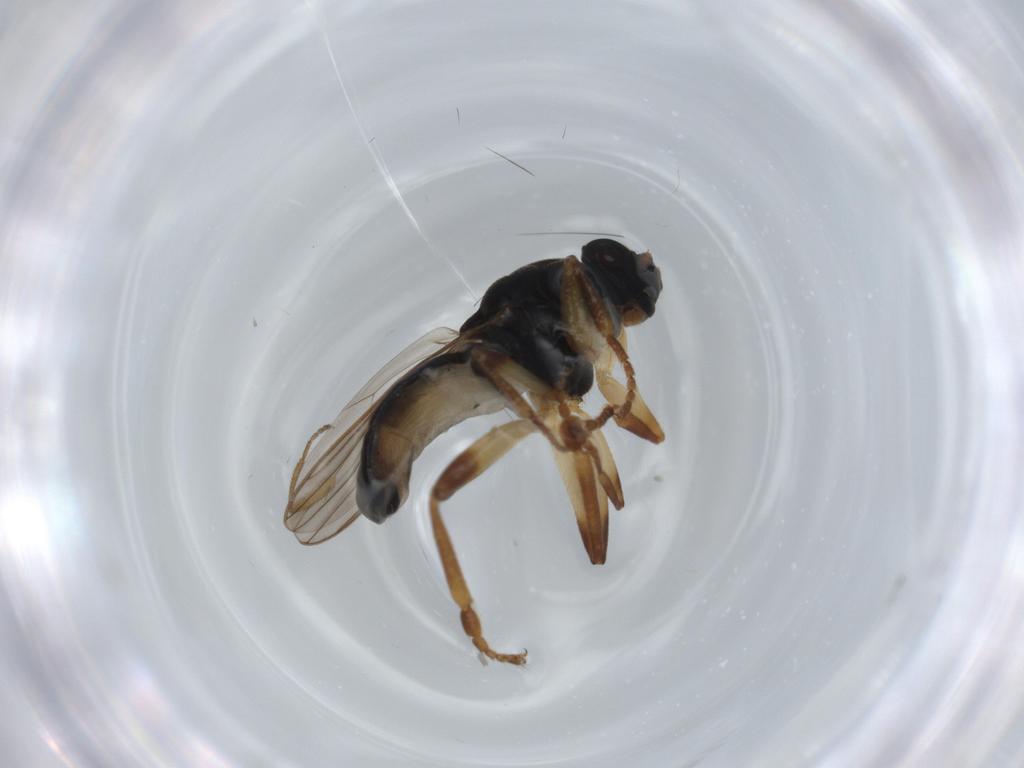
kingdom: Animalia
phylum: Arthropoda
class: Insecta
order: Diptera
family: Sphaeroceridae
